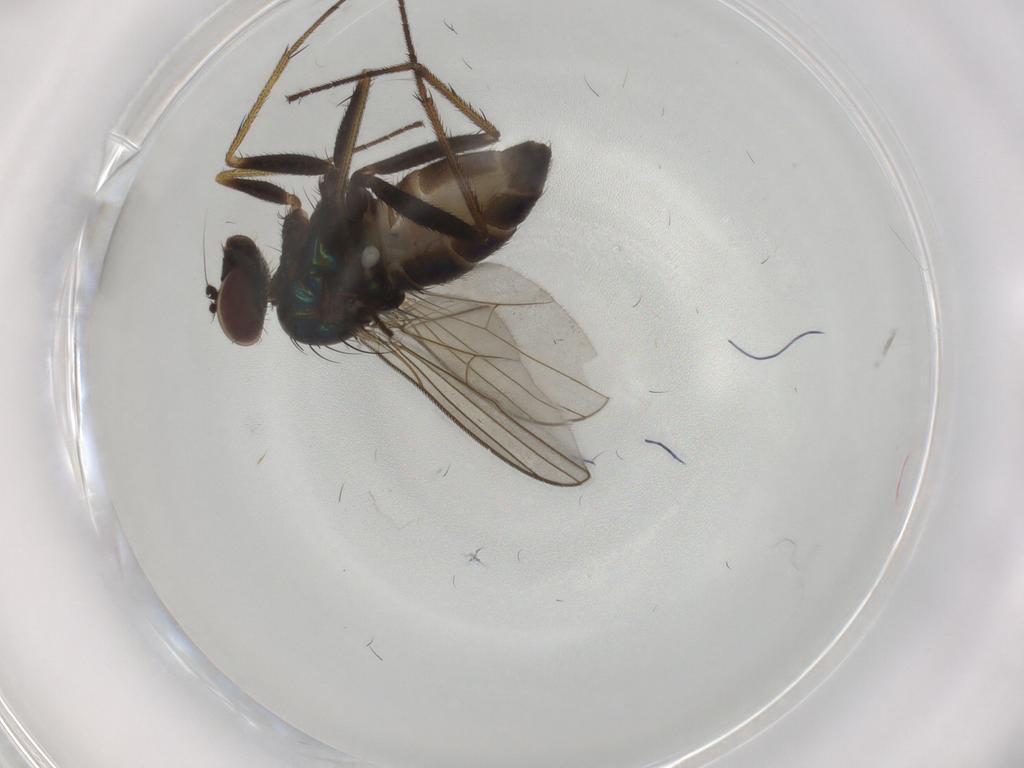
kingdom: Animalia
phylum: Arthropoda
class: Insecta
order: Diptera
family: Dolichopodidae
